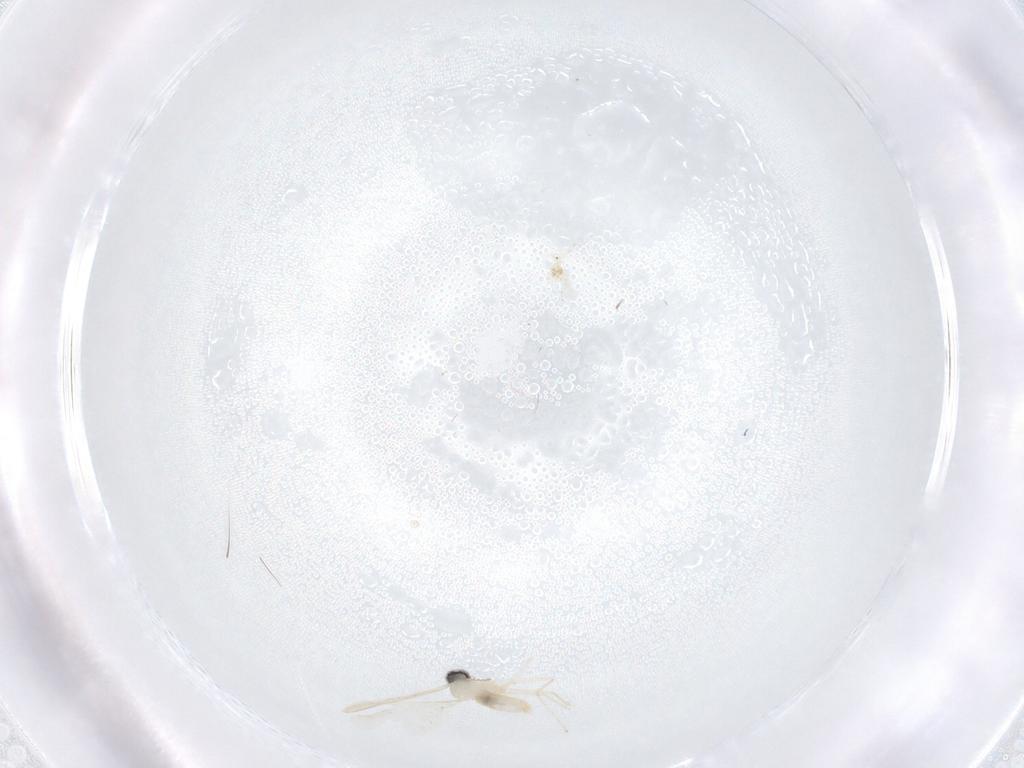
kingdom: Animalia
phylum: Arthropoda
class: Insecta
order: Diptera
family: Cecidomyiidae
